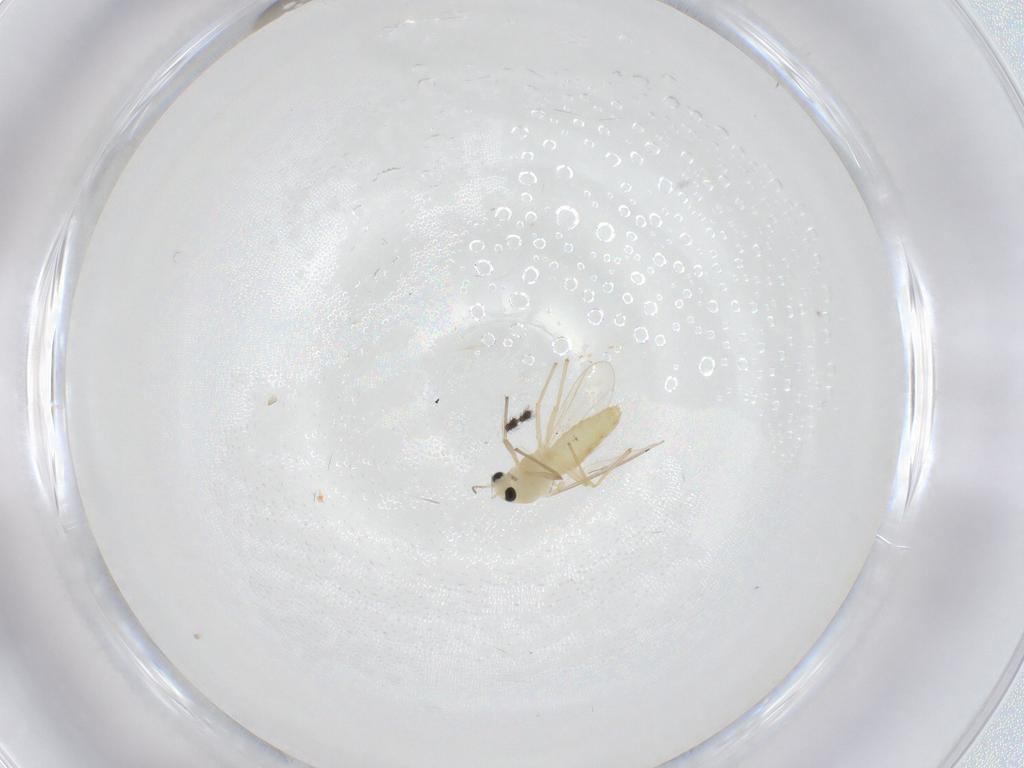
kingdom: Animalia
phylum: Arthropoda
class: Insecta
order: Diptera
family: Chironomidae
